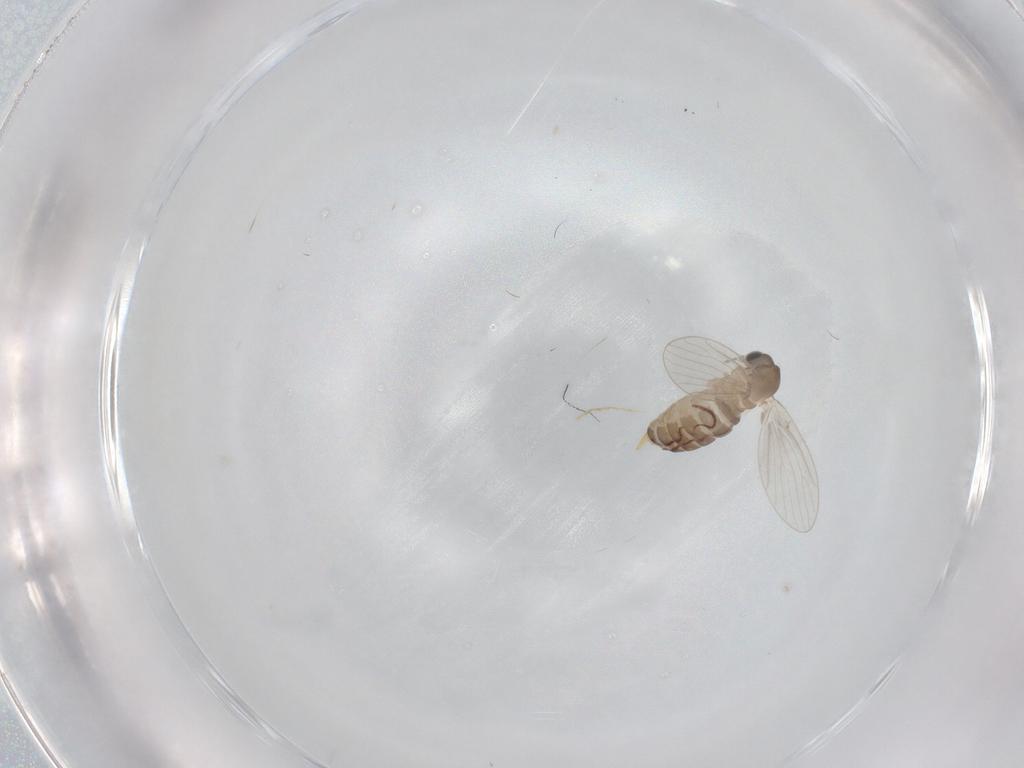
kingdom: Animalia
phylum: Arthropoda
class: Insecta
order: Diptera
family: Psychodidae
